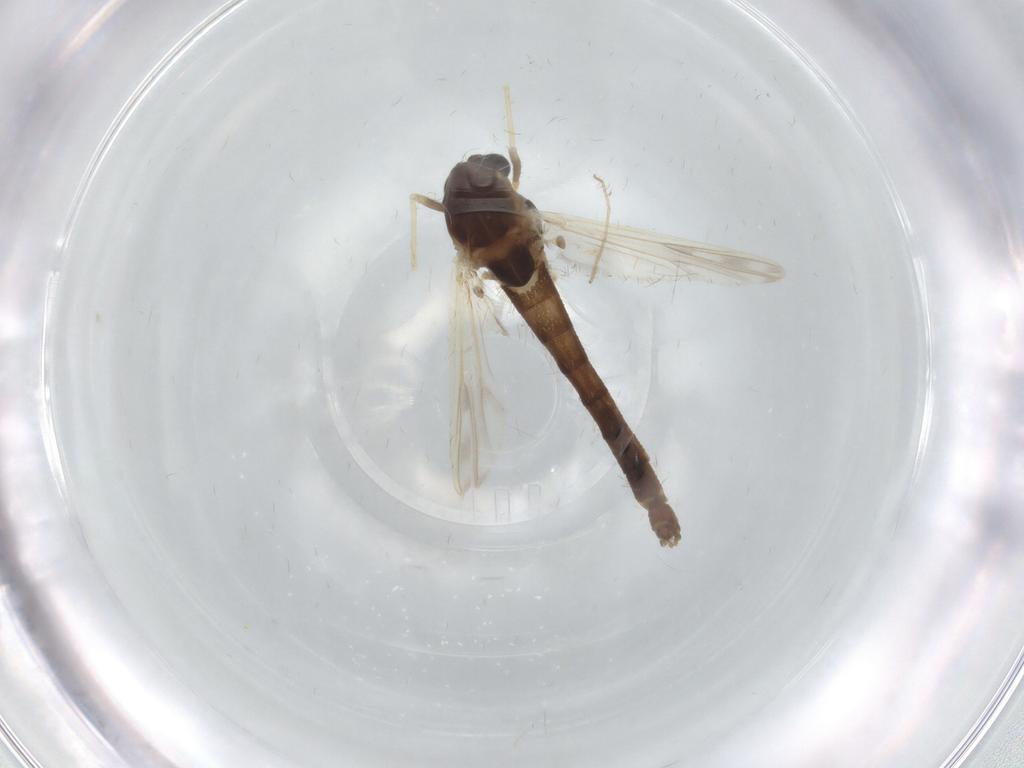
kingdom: Animalia
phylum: Arthropoda
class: Insecta
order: Diptera
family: Chironomidae
